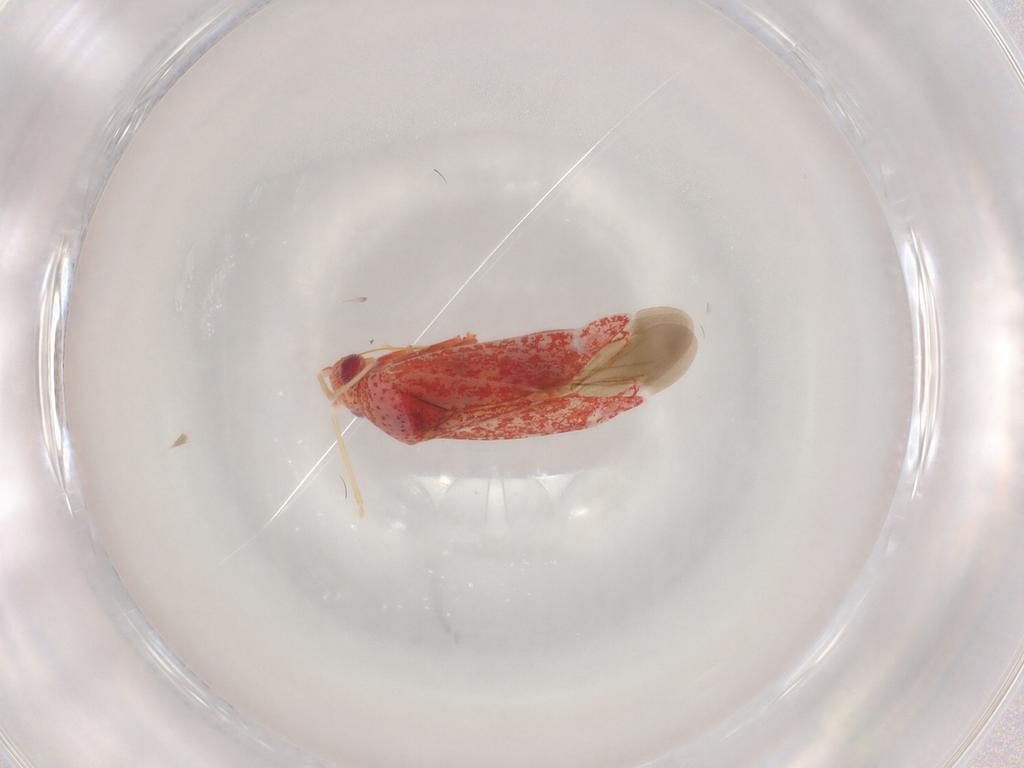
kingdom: Animalia
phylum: Arthropoda
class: Insecta
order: Hemiptera
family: Miridae
